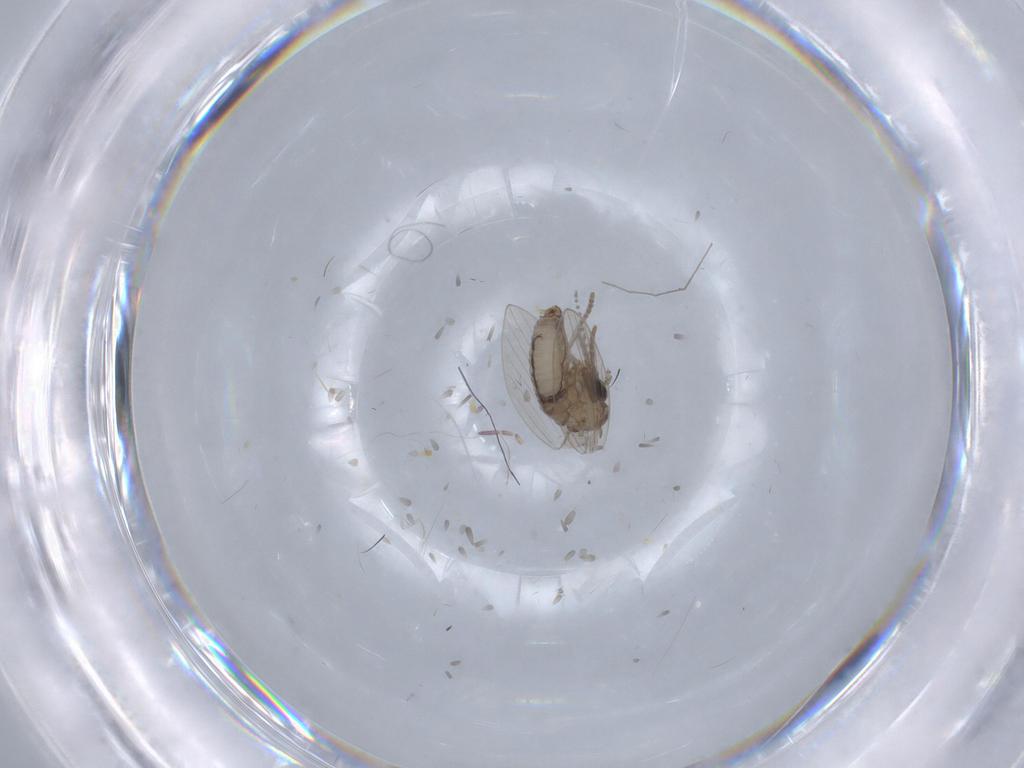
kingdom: Animalia
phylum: Arthropoda
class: Insecta
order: Diptera
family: Psychodidae
